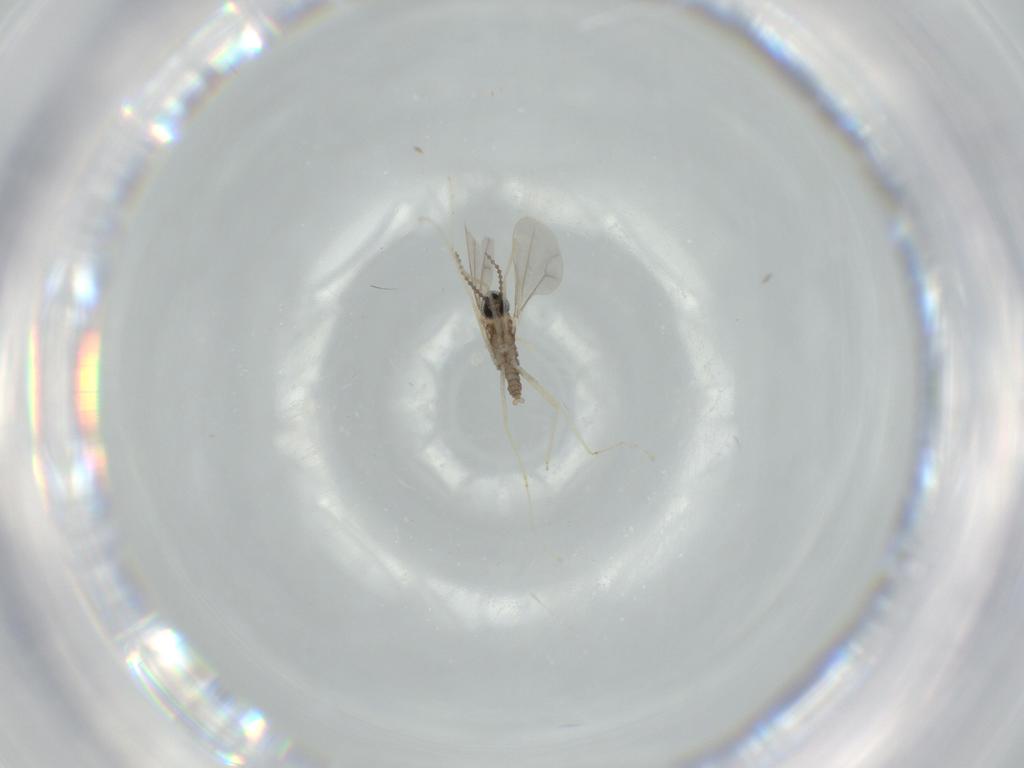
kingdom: Animalia
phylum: Arthropoda
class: Insecta
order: Diptera
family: Cecidomyiidae
